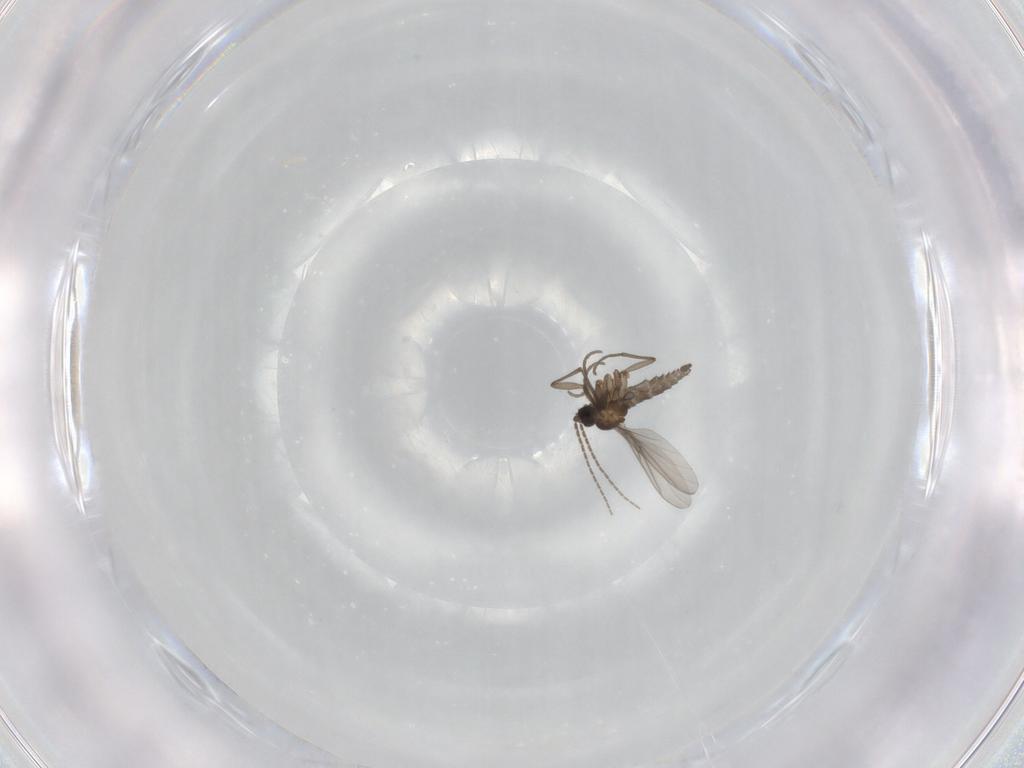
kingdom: Animalia
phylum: Arthropoda
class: Insecta
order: Diptera
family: Sciaridae
